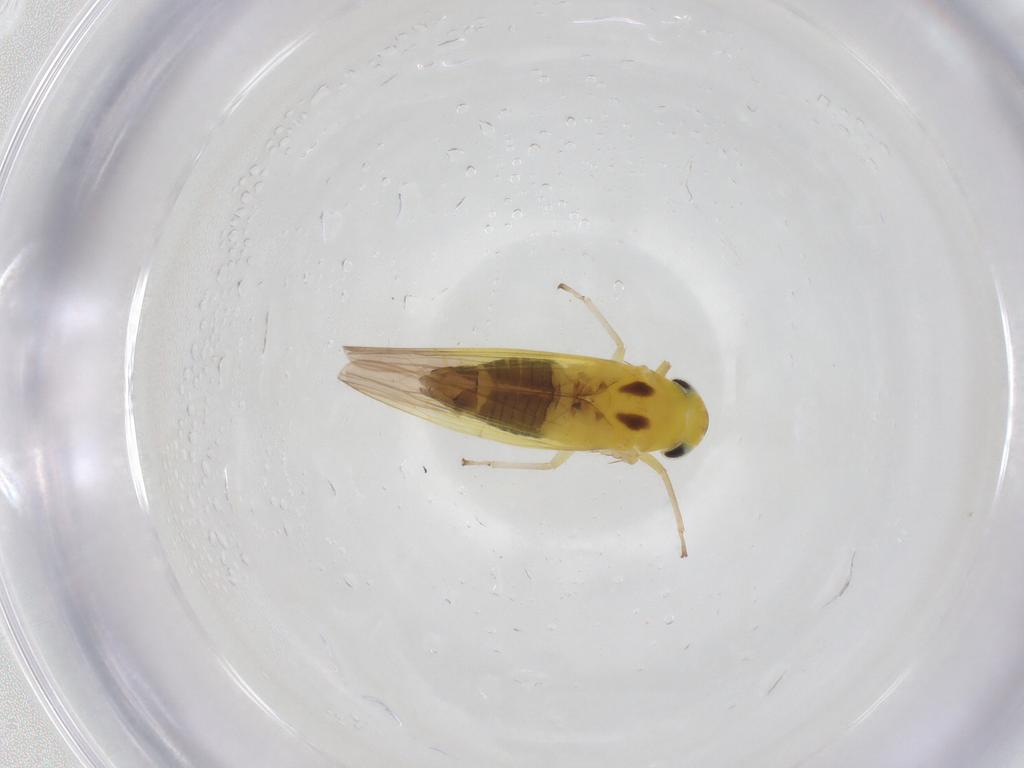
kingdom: Animalia
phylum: Arthropoda
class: Insecta
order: Hemiptera
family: Cicadellidae
